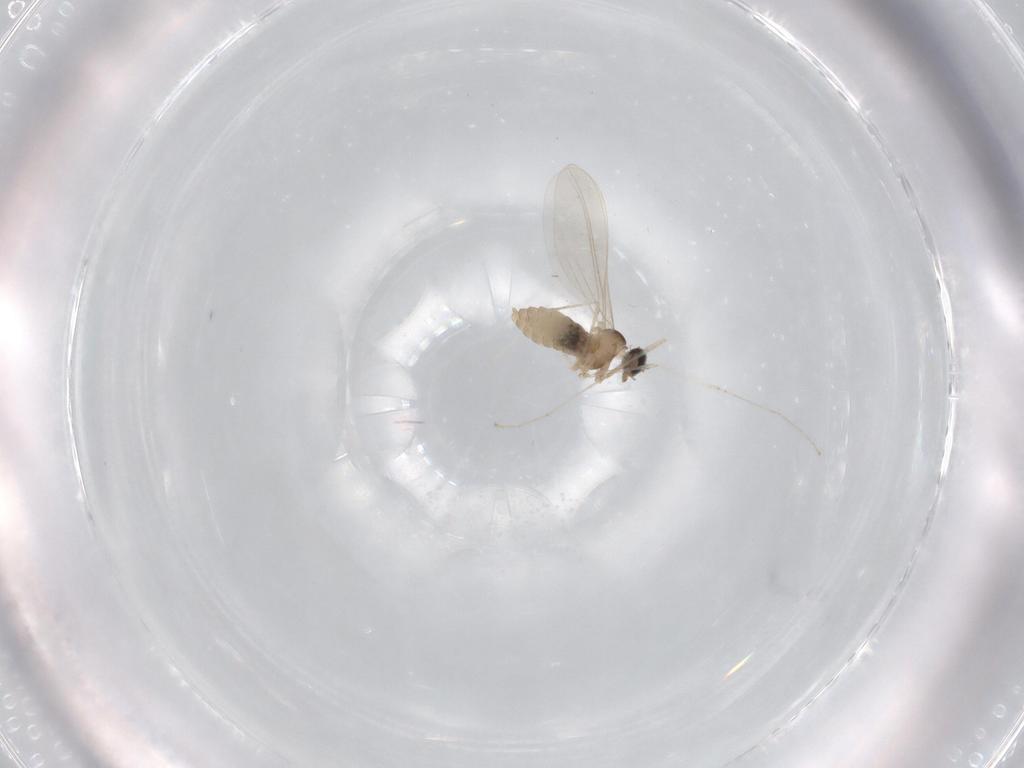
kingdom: Animalia
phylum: Arthropoda
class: Insecta
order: Diptera
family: Cecidomyiidae
